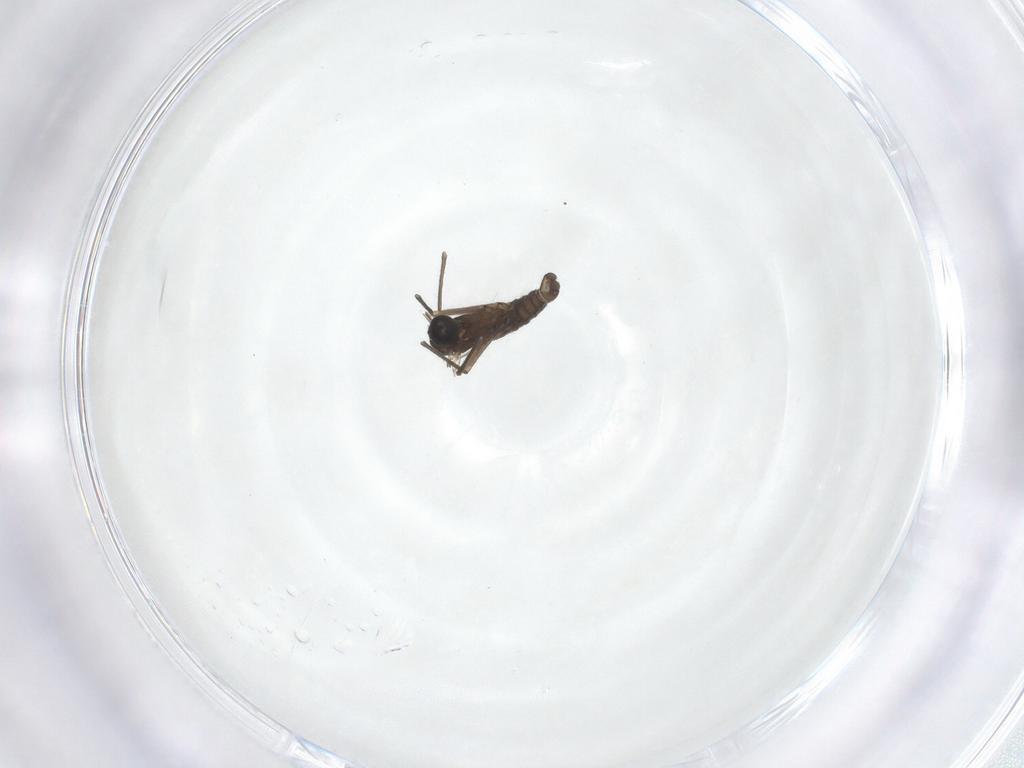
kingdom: Animalia
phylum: Arthropoda
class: Insecta
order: Diptera
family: Sciaridae
